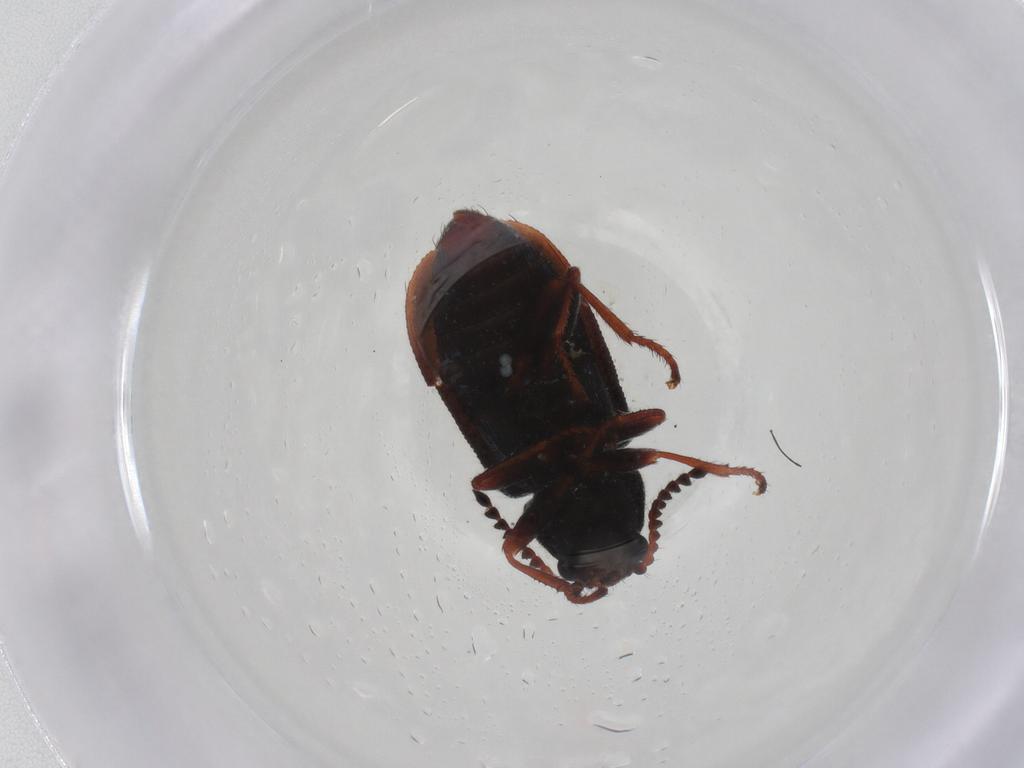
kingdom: Animalia
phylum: Arthropoda
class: Insecta
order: Coleoptera
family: Melyridae
